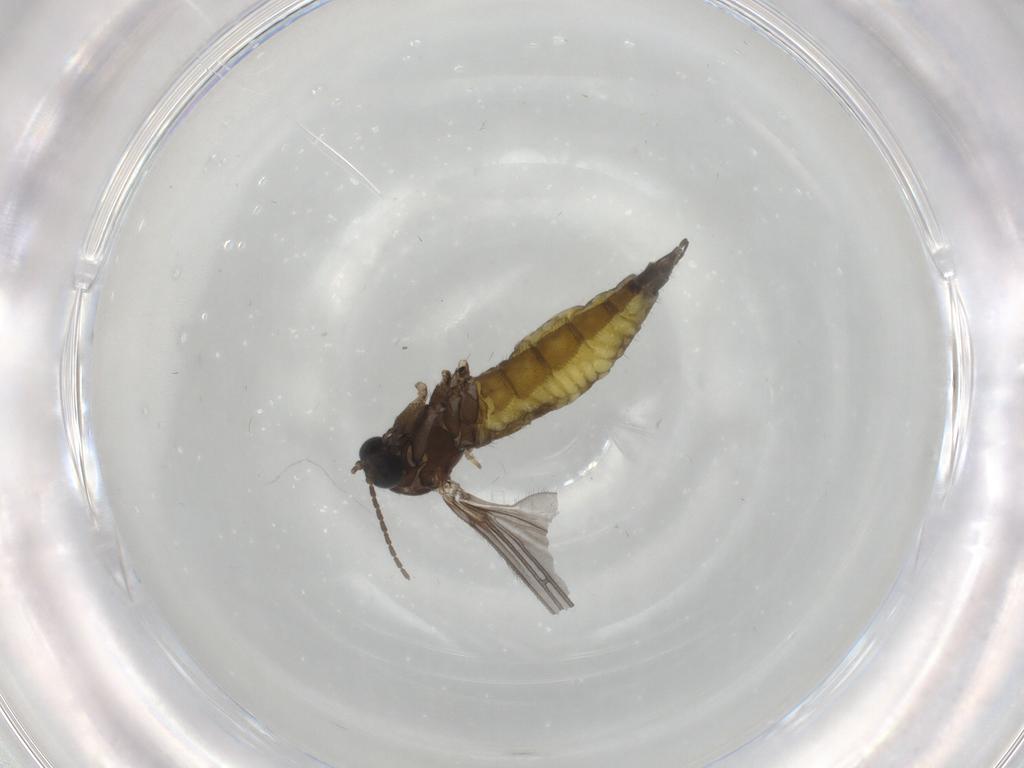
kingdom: Animalia
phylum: Arthropoda
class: Insecta
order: Diptera
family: Sciaridae
